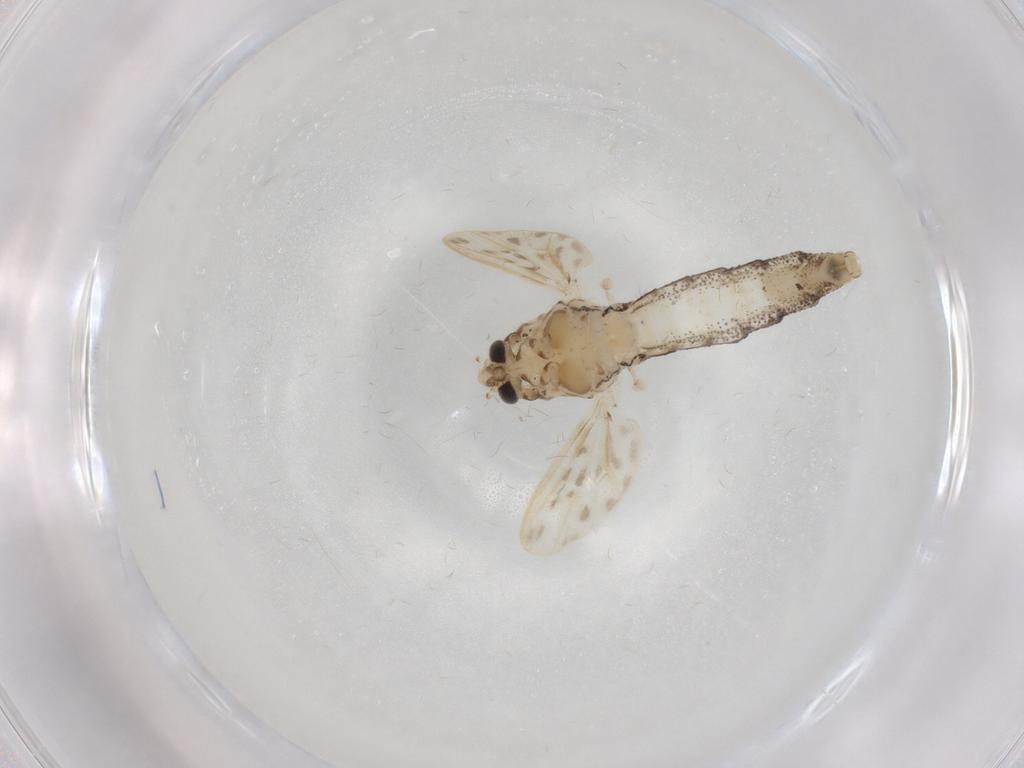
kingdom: Animalia
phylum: Arthropoda
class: Insecta
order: Diptera
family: Chaoboridae
